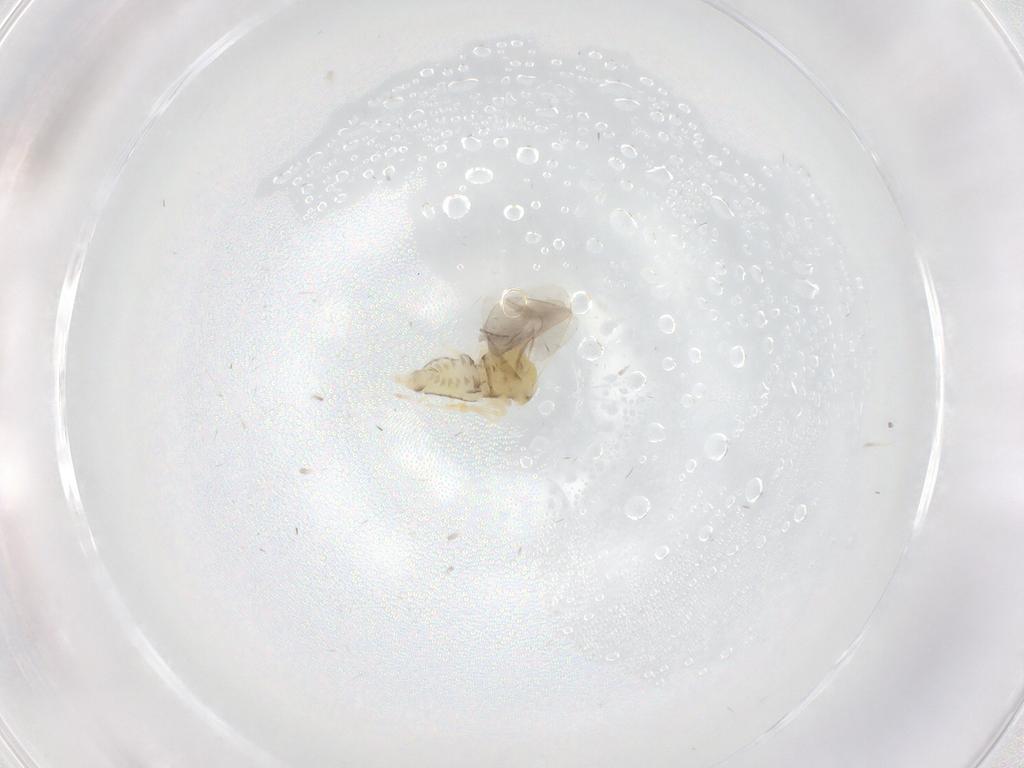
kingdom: Animalia
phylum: Arthropoda
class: Insecta
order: Hemiptera
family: Aleyrodidae
